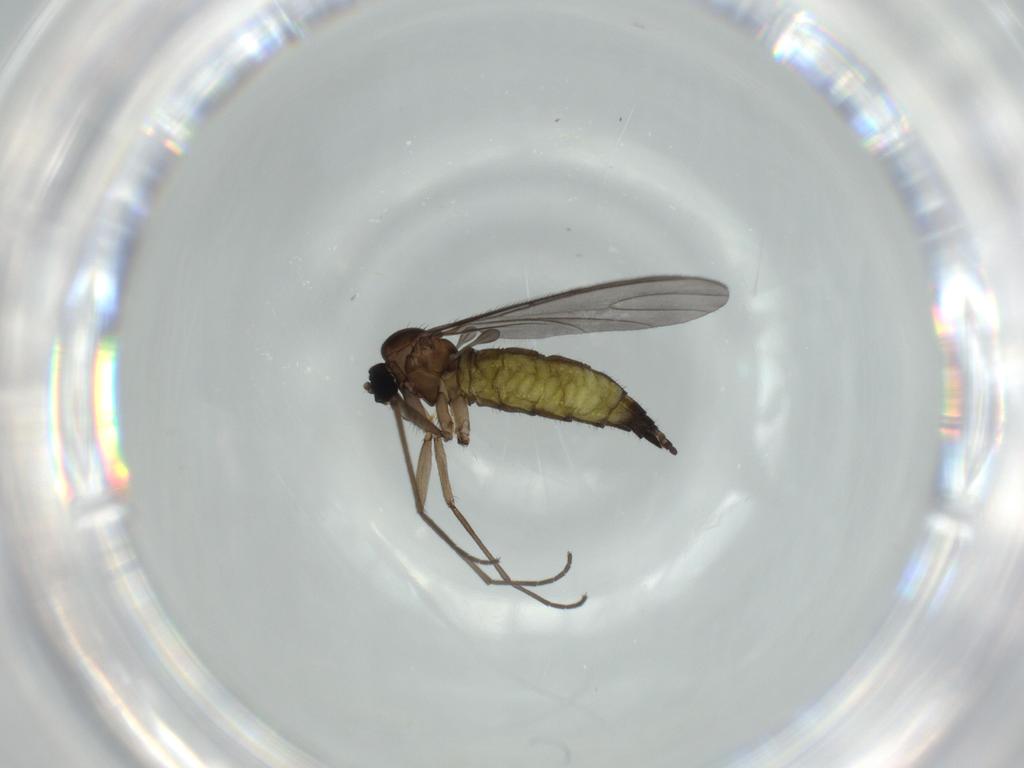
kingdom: Animalia
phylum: Arthropoda
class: Insecta
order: Diptera
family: Sciaridae
